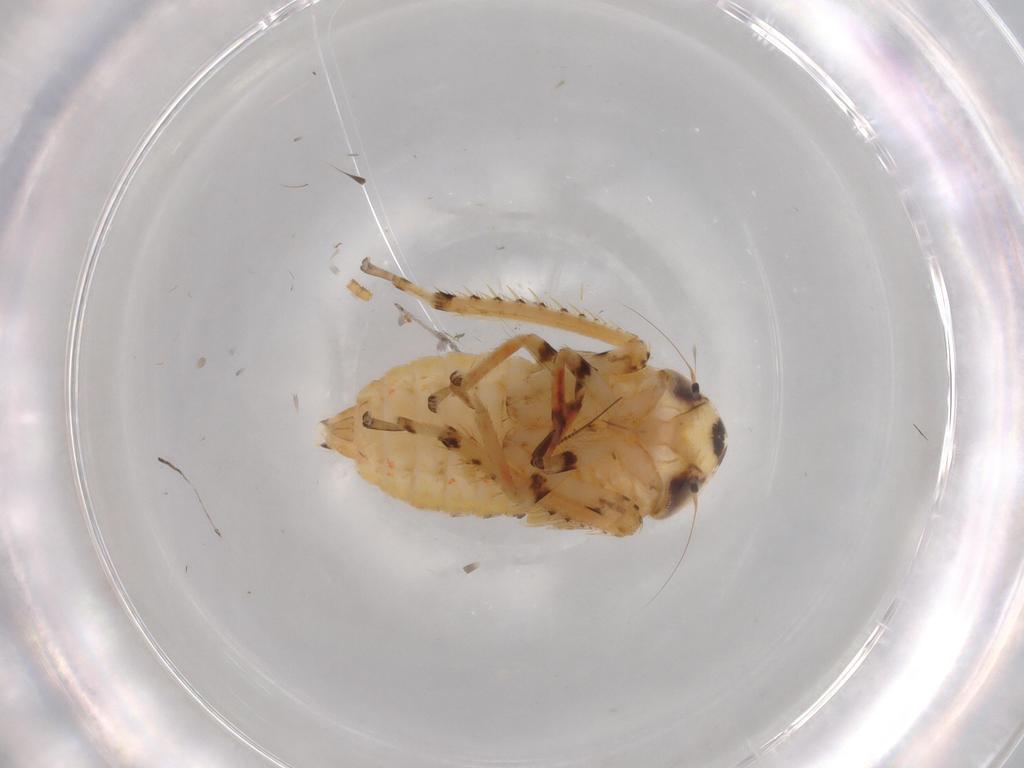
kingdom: Animalia
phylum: Arthropoda
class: Insecta
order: Hemiptera
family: Cicadellidae
